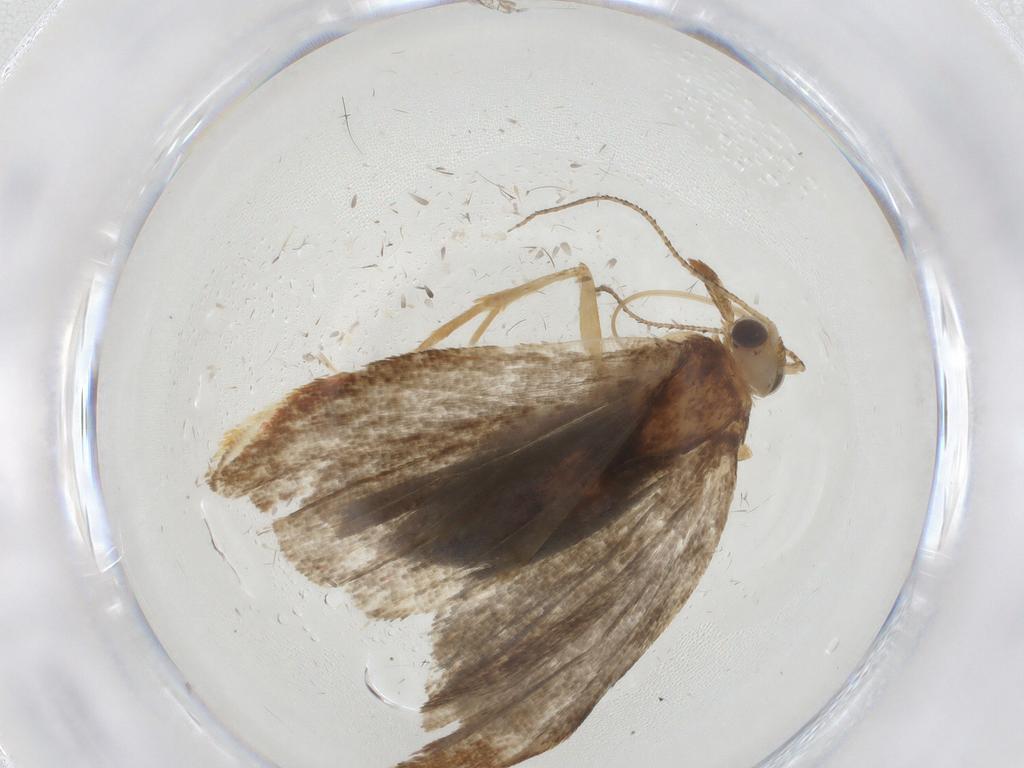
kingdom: Animalia
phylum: Arthropoda
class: Insecta
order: Lepidoptera
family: Crambidae
